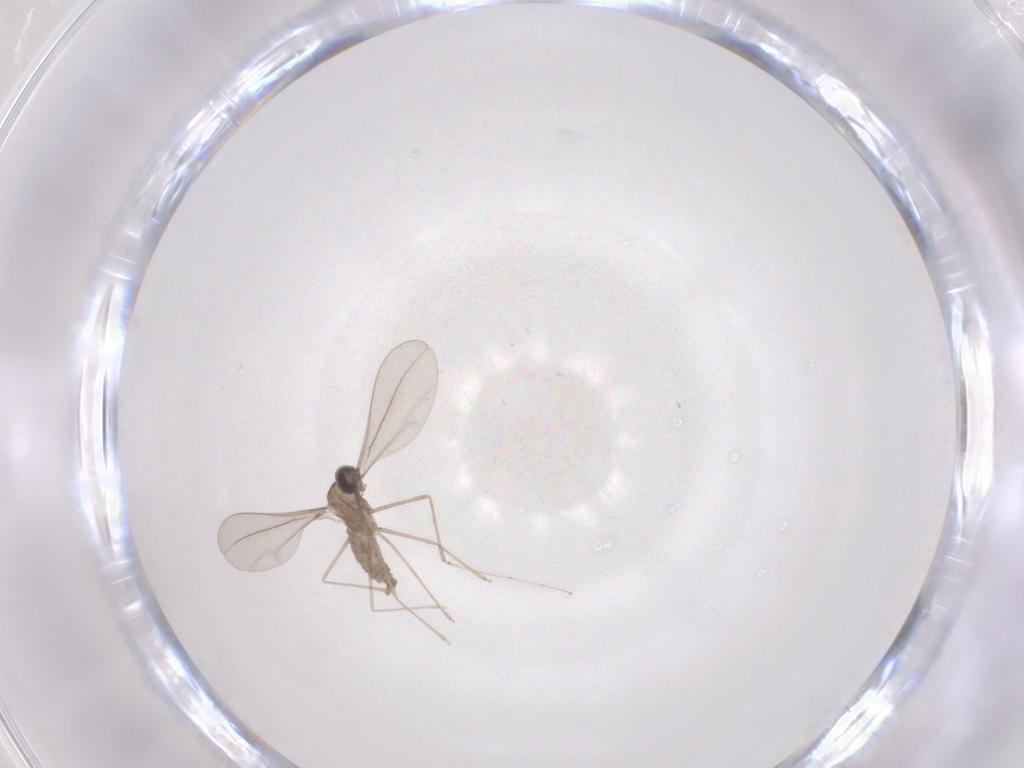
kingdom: Animalia
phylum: Arthropoda
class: Insecta
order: Diptera
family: Cecidomyiidae
